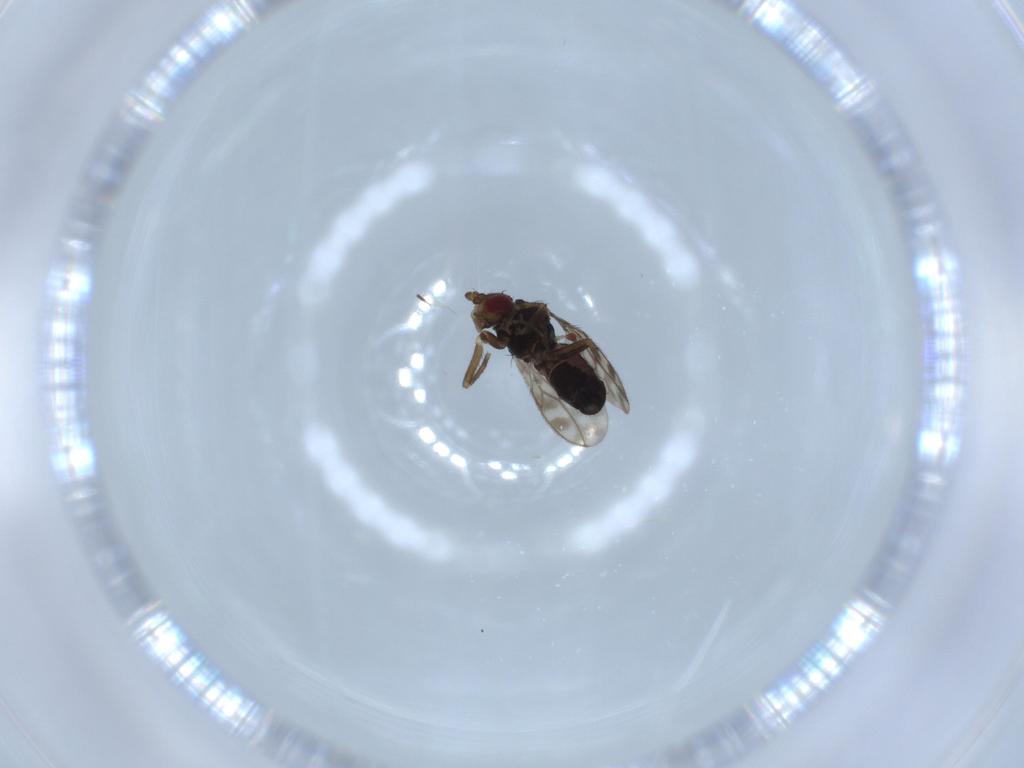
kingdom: Animalia
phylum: Arthropoda
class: Insecta
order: Diptera
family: Sphaeroceridae
